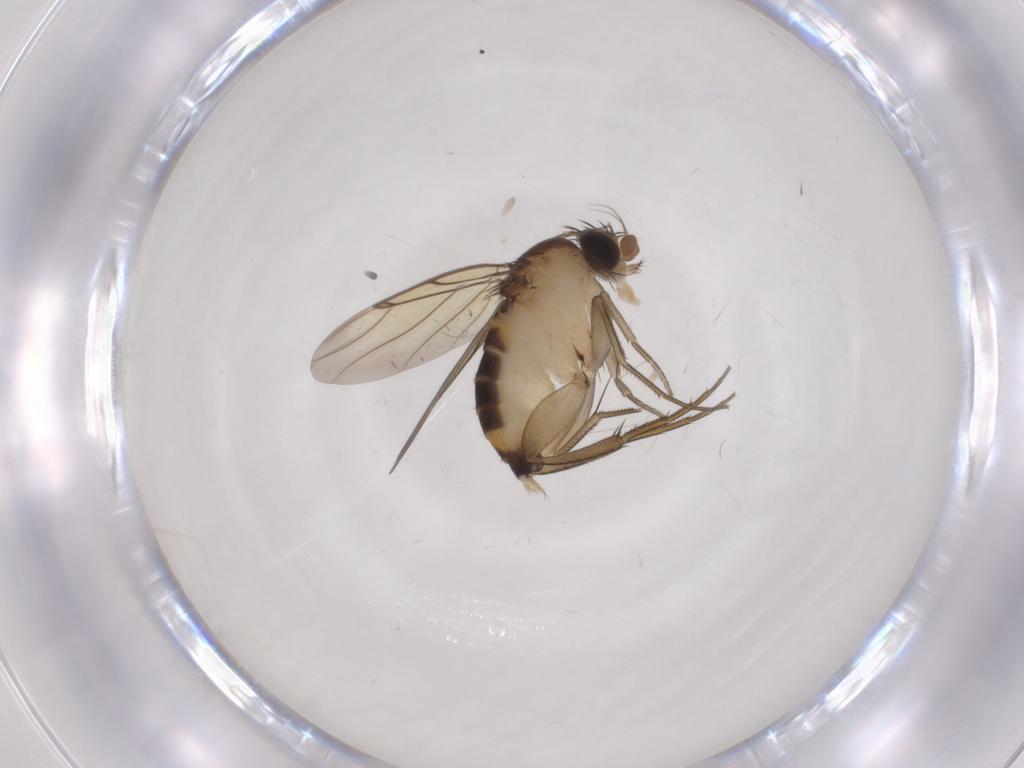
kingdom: Animalia
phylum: Arthropoda
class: Insecta
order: Diptera
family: Phoridae
